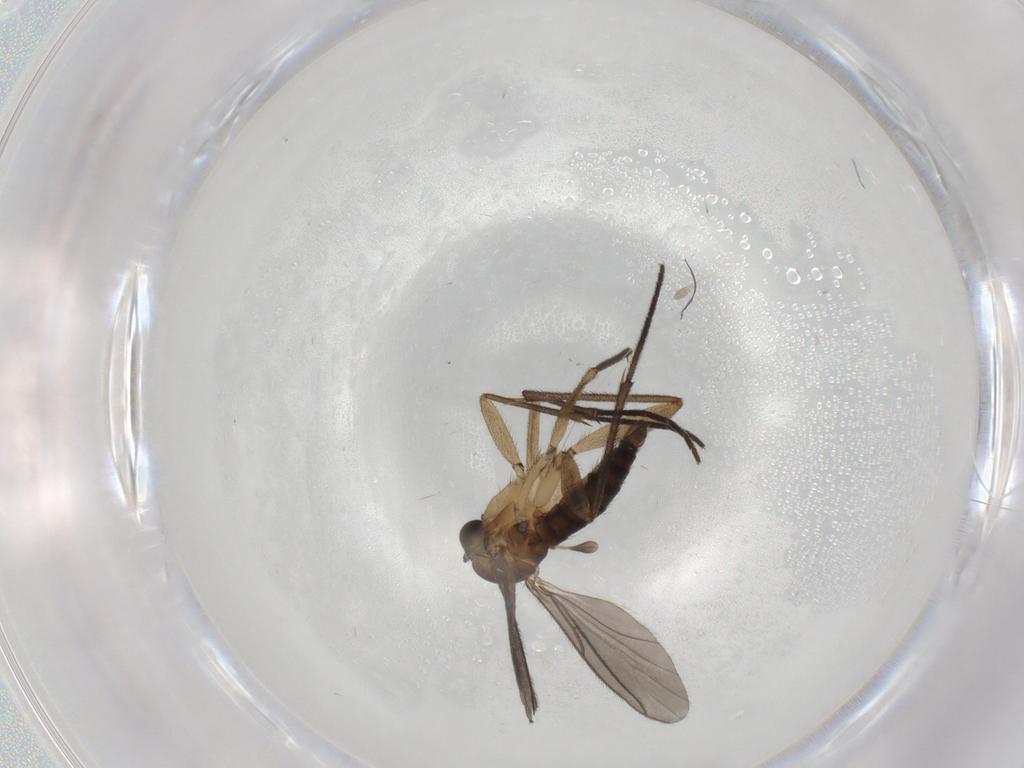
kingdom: Animalia
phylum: Arthropoda
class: Insecta
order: Diptera
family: Sciaridae
